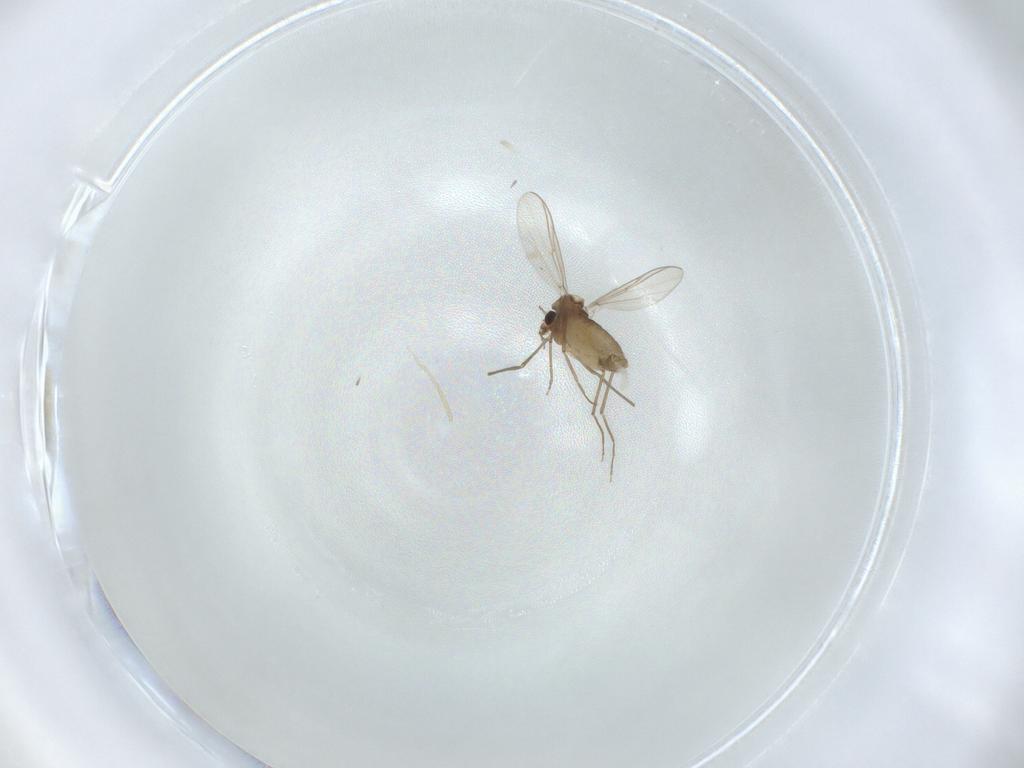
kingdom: Animalia
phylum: Arthropoda
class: Insecta
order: Diptera
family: Chironomidae
